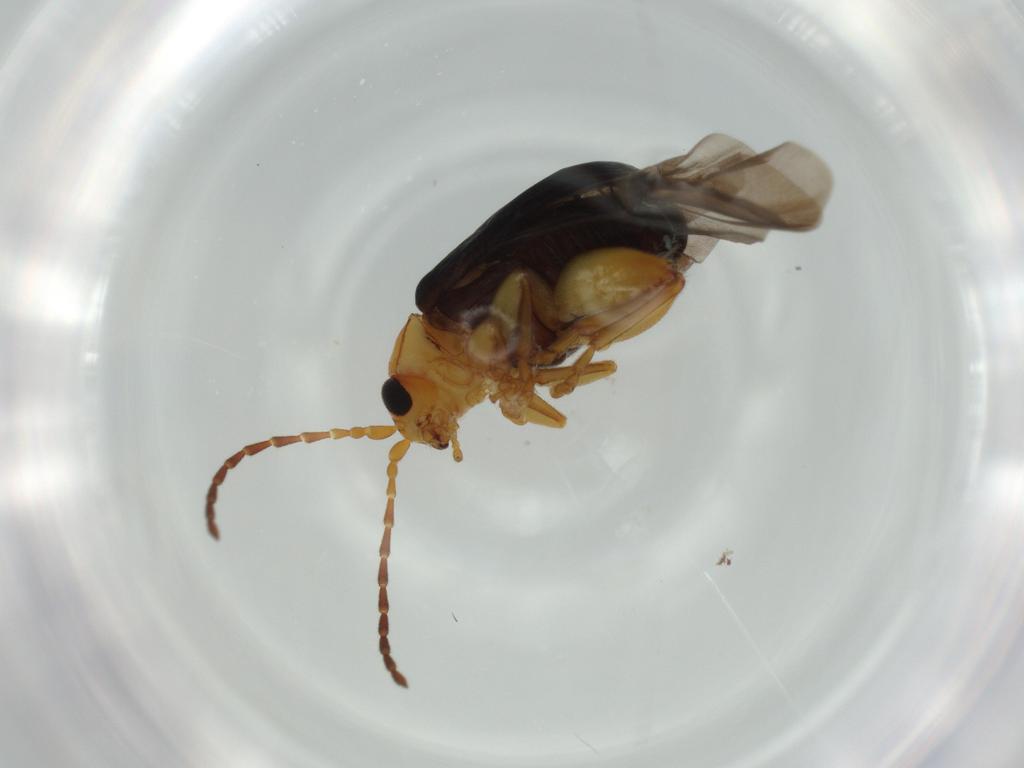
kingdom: Animalia
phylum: Arthropoda
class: Insecta
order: Coleoptera
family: Chrysomelidae
